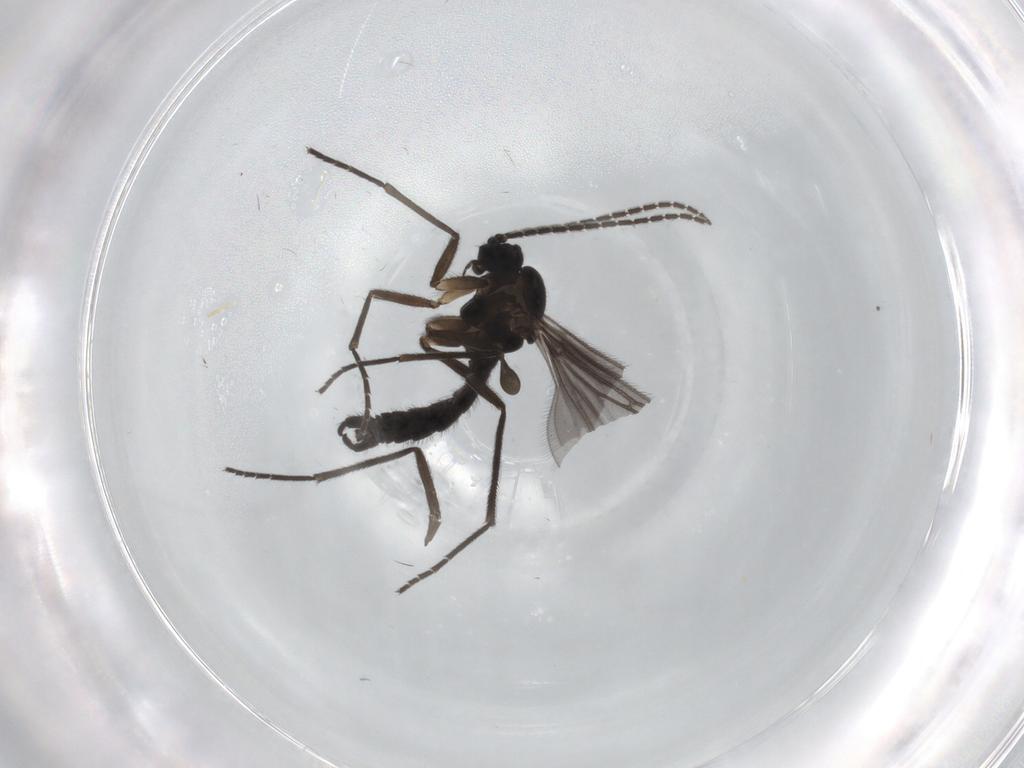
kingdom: Animalia
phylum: Arthropoda
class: Insecta
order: Diptera
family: Sciaridae
